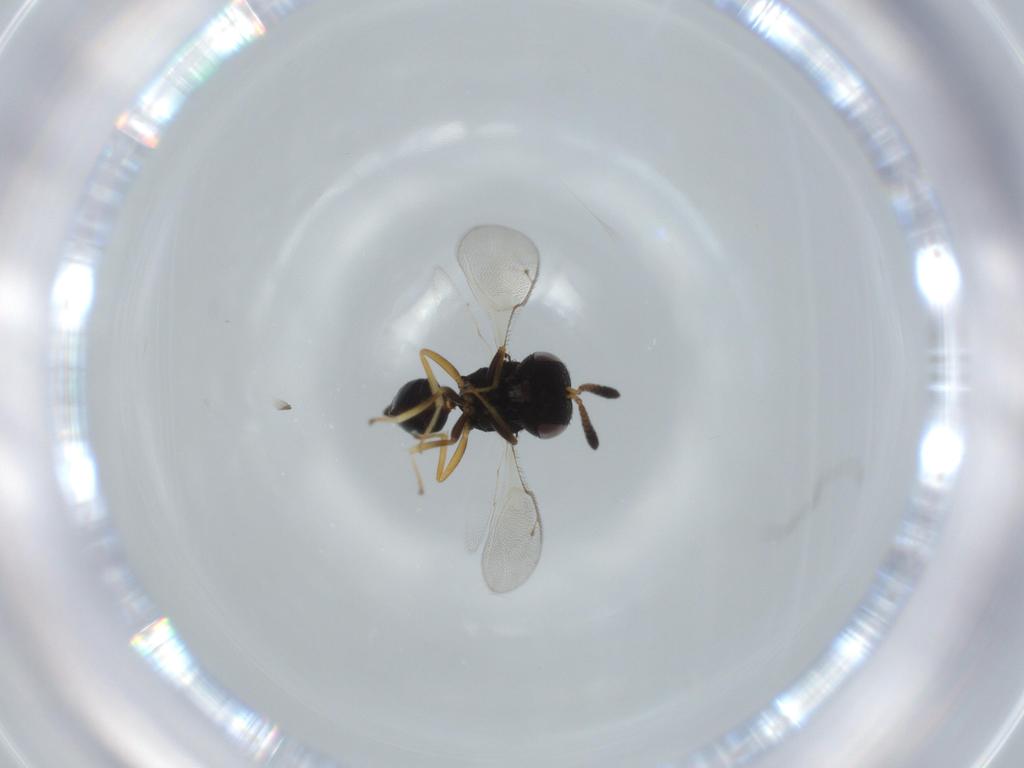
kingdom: Animalia
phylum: Arthropoda
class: Insecta
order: Hymenoptera
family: Pteromalidae
